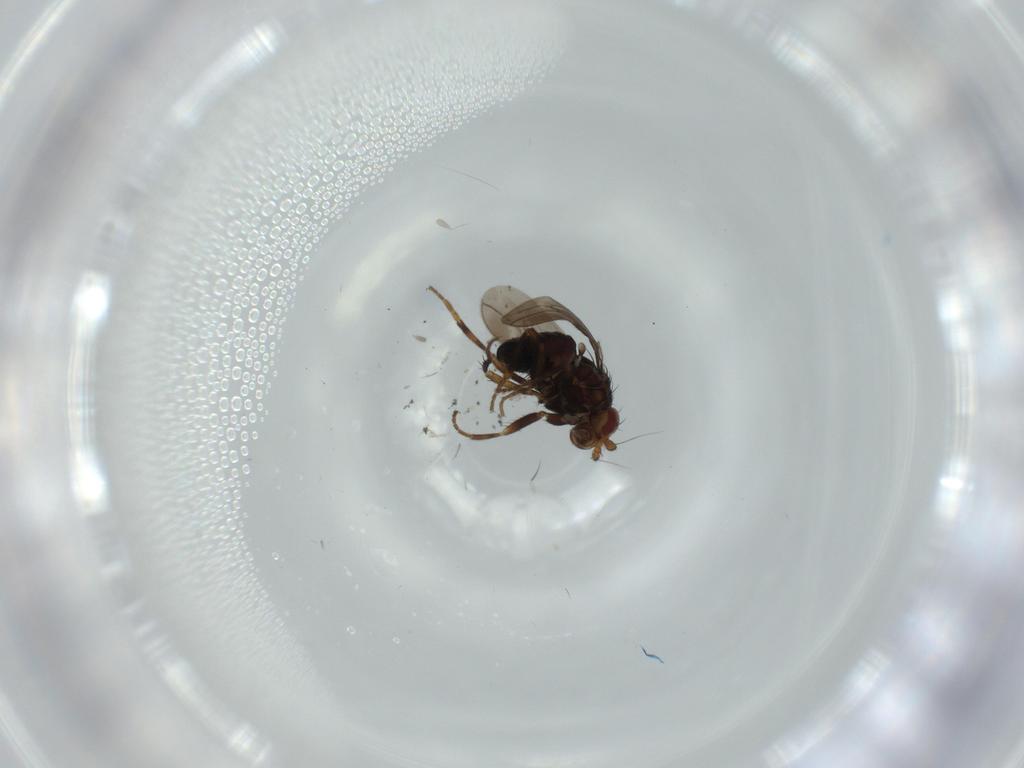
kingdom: Animalia
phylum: Arthropoda
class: Insecta
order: Diptera
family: Sciaridae
